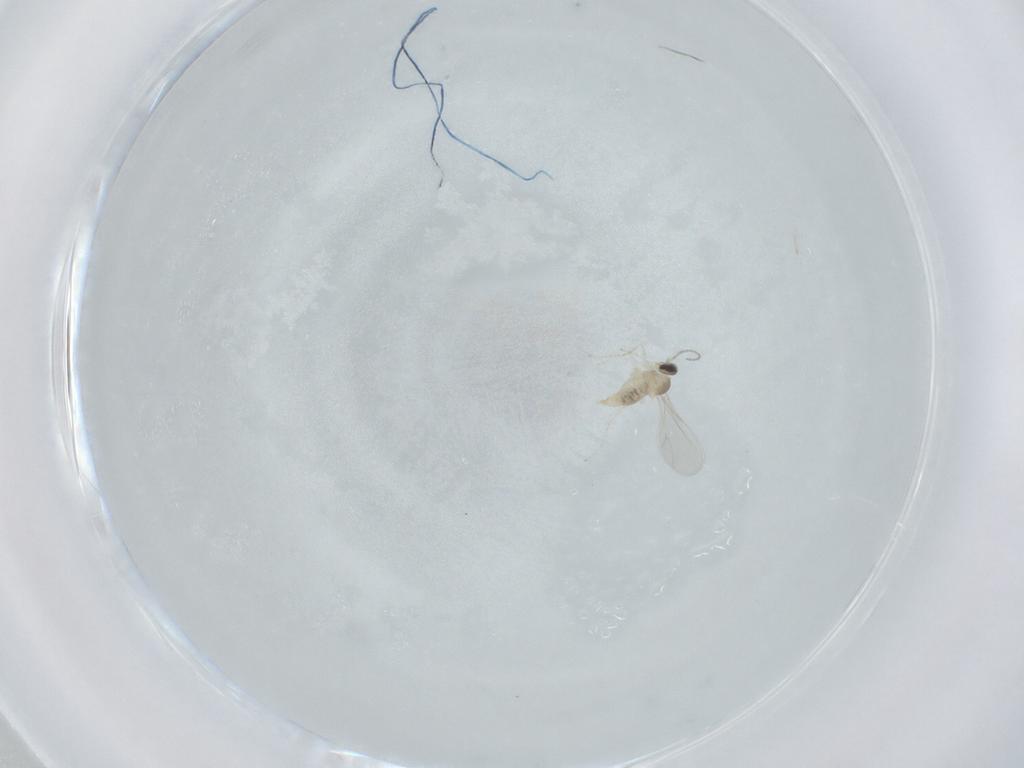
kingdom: Animalia
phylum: Arthropoda
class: Insecta
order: Diptera
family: Cecidomyiidae
